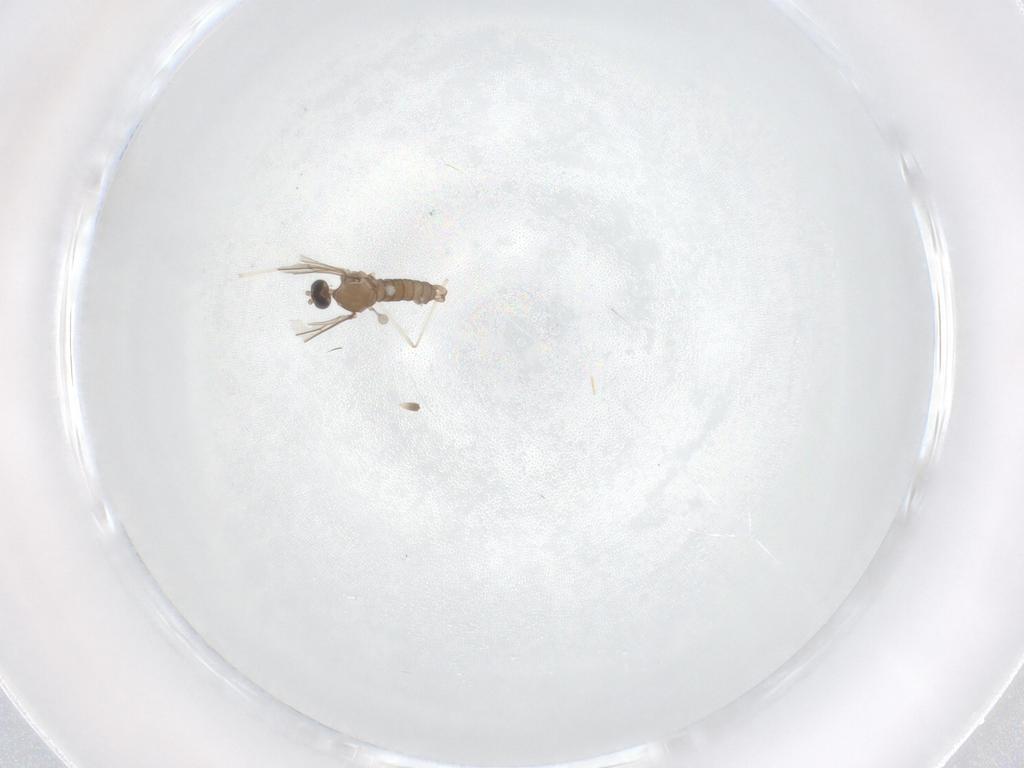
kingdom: Animalia
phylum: Arthropoda
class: Insecta
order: Diptera
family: Cecidomyiidae
